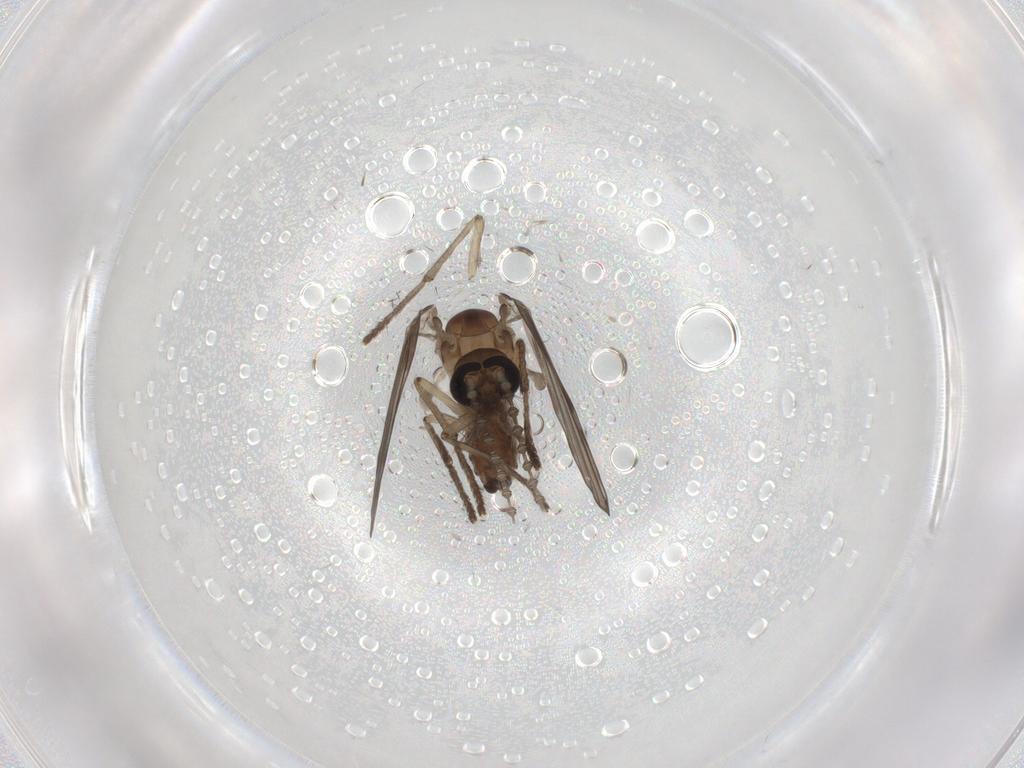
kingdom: Animalia
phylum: Arthropoda
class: Insecta
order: Diptera
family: Psychodidae
